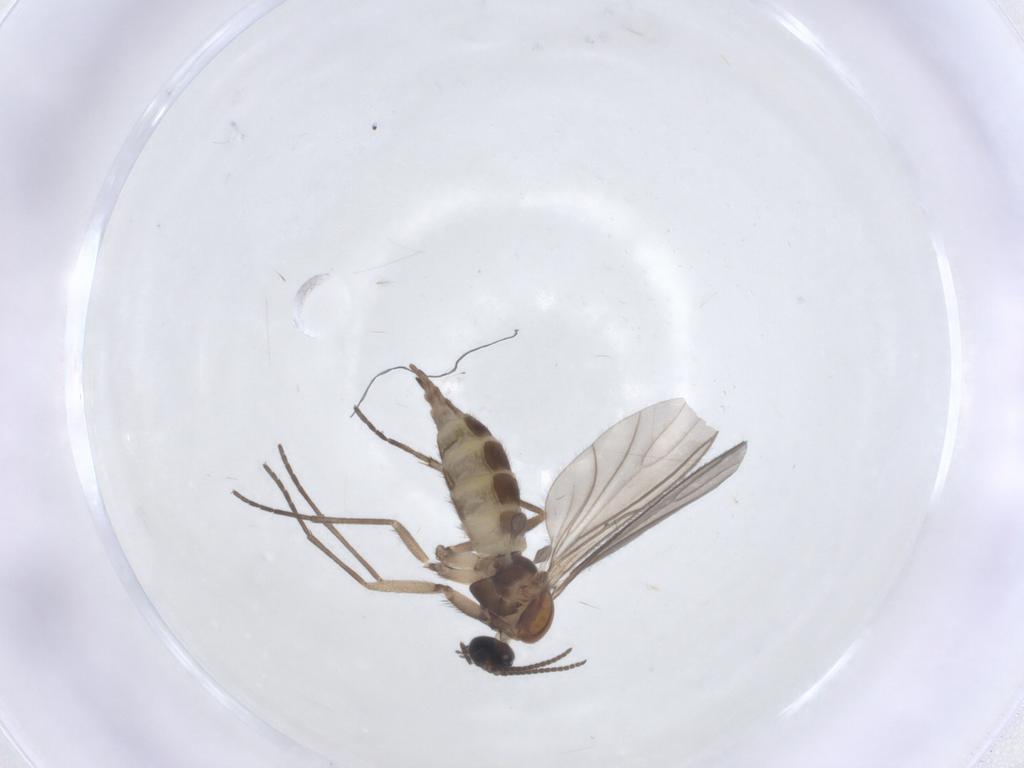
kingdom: Animalia
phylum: Arthropoda
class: Insecta
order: Diptera
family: Sciaridae
